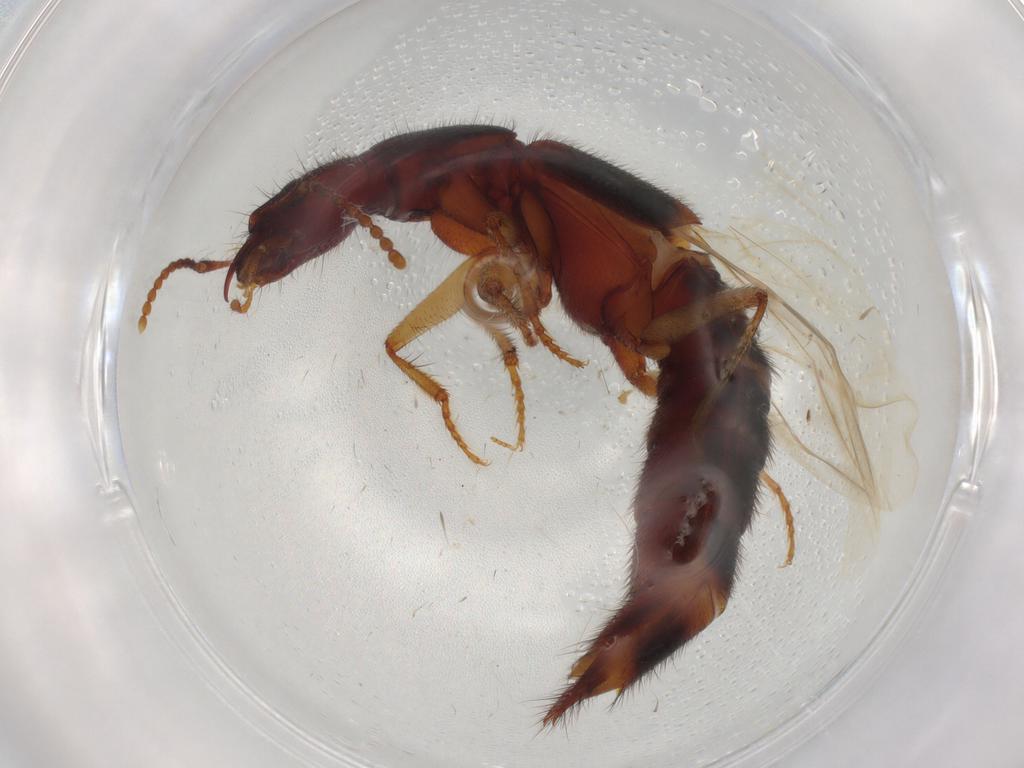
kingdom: Animalia
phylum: Arthropoda
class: Insecta
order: Coleoptera
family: Staphylinidae
